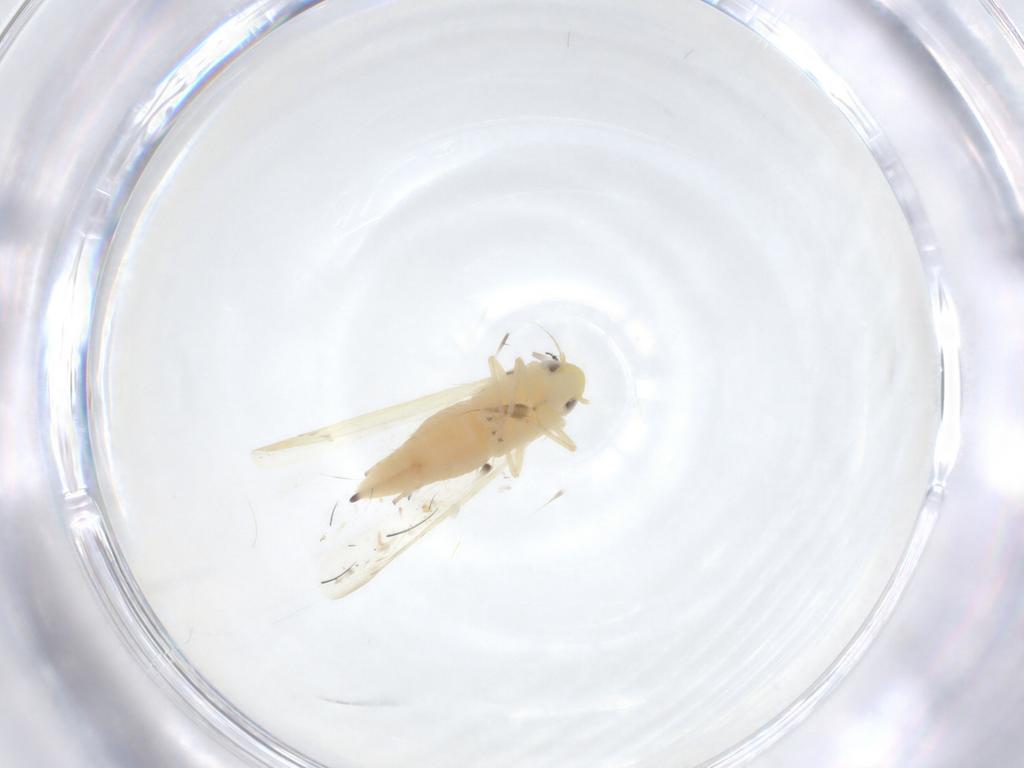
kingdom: Animalia
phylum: Arthropoda
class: Insecta
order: Hemiptera
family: Cicadellidae
